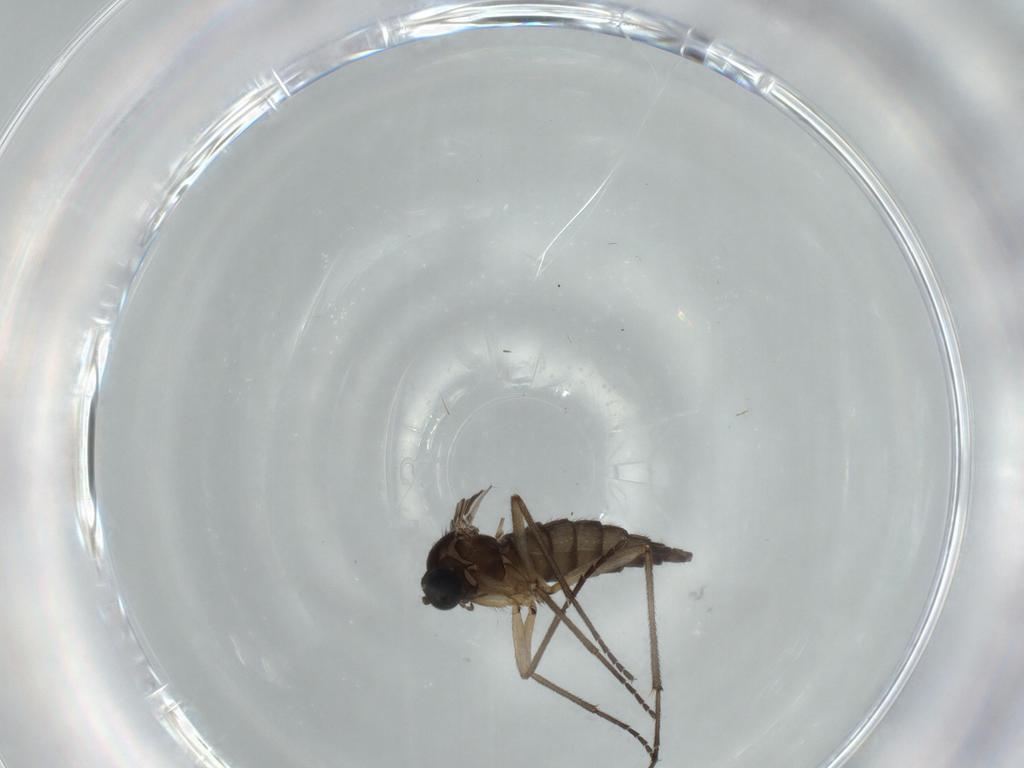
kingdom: Animalia
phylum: Arthropoda
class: Insecta
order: Diptera
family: Sciaridae
